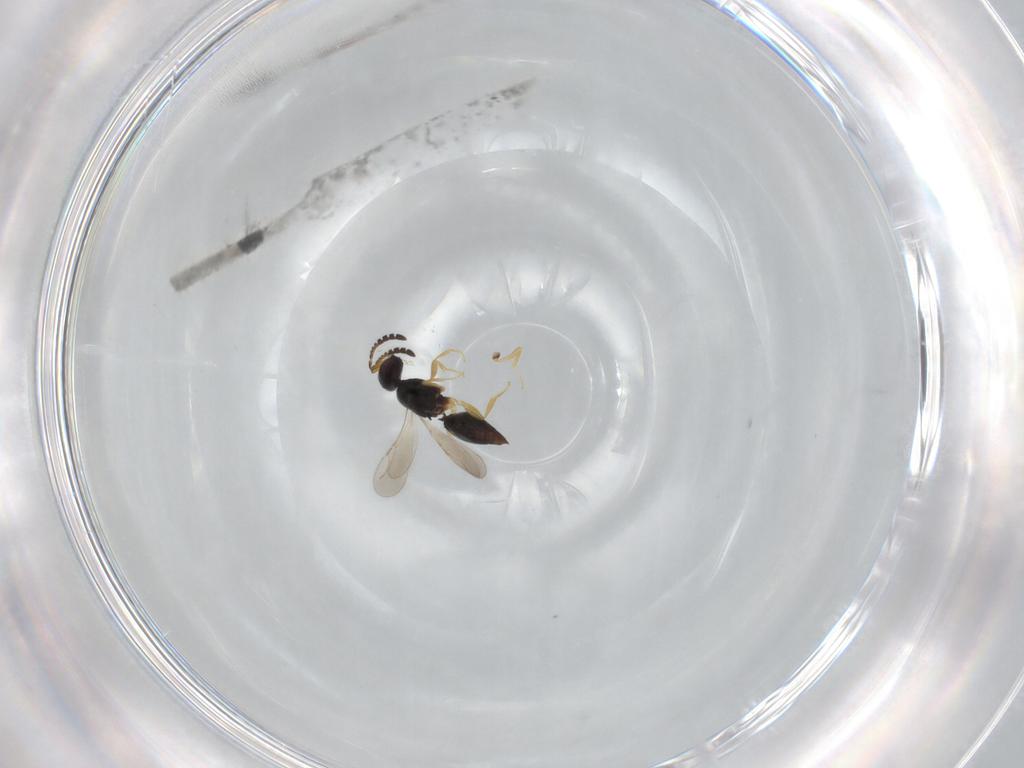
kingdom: Animalia
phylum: Arthropoda
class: Insecta
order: Hymenoptera
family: Ceraphronidae
